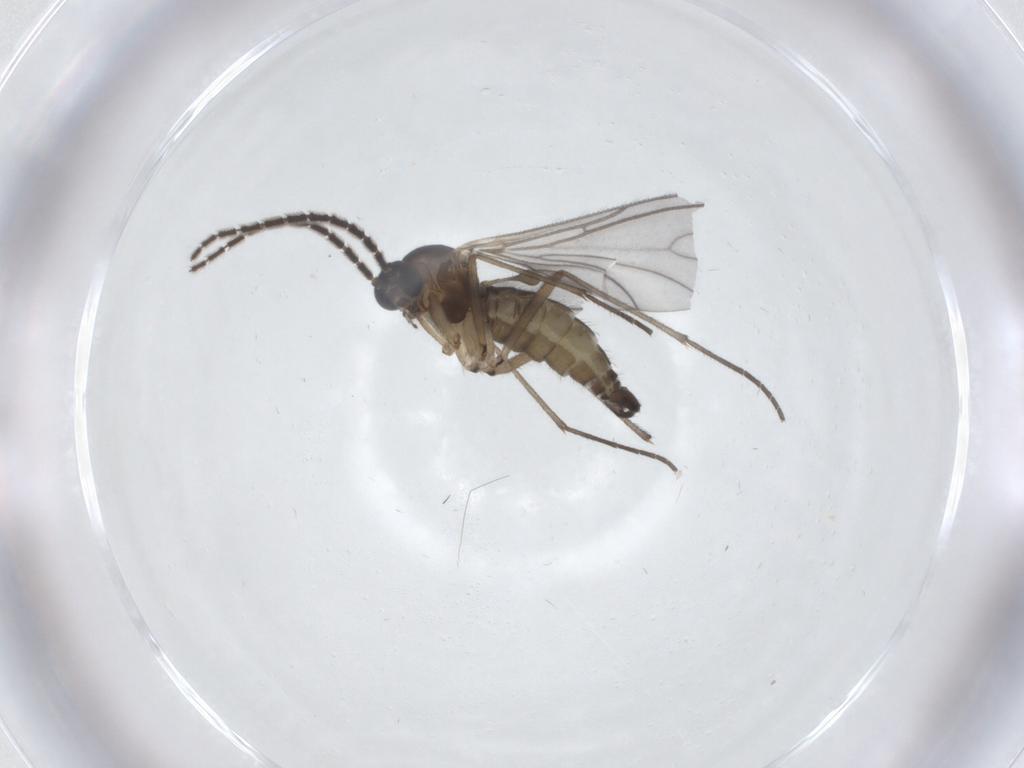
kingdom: Animalia
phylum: Arthropoda
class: Insecta
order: Diptera
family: Sciaridae
